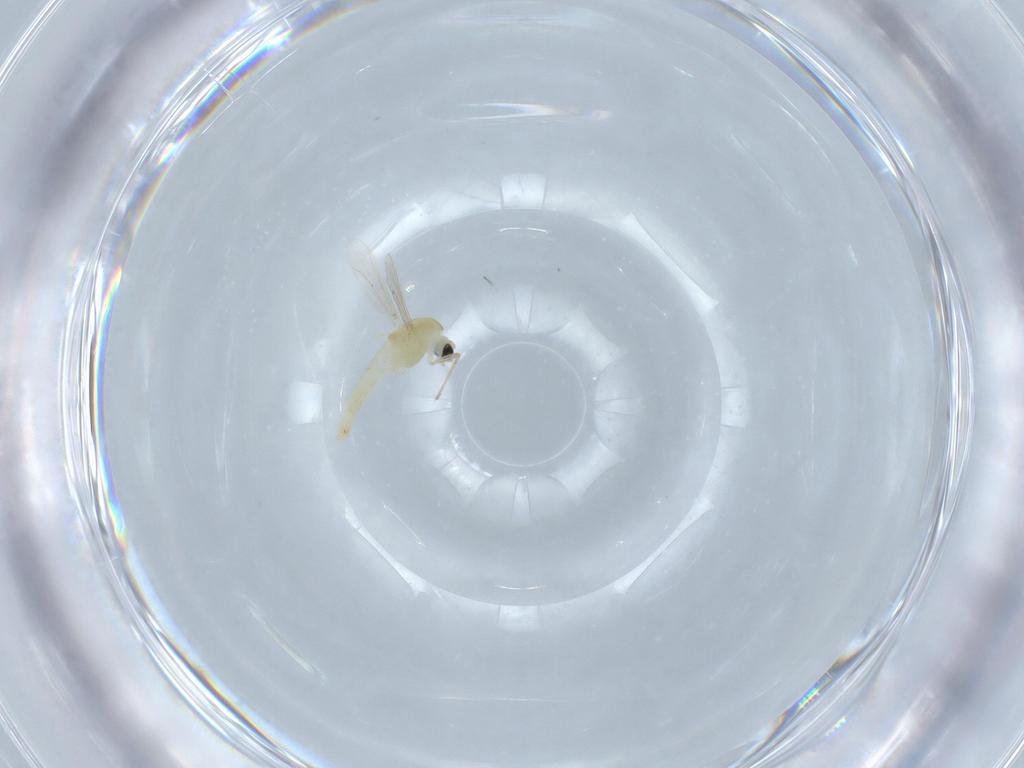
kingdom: Animalia
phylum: Arthropoda
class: Insecta
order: Diptera
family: Chironomidae
